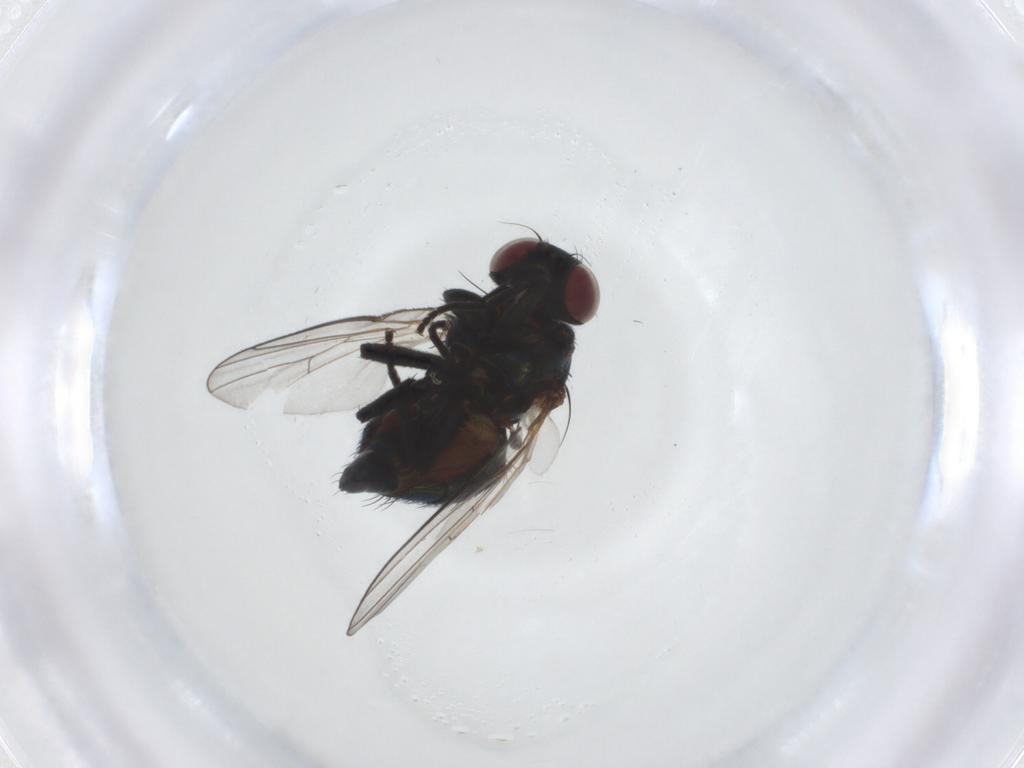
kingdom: Animalia
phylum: Arthropoda
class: Insecta
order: Diptera
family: Agromyzidae
